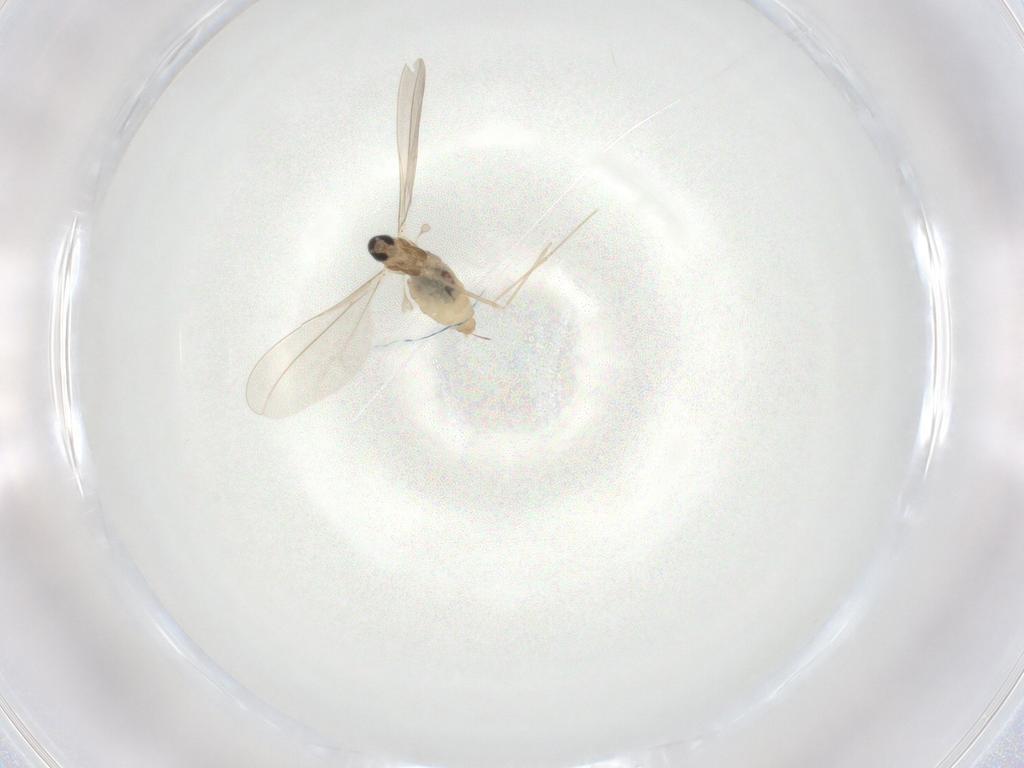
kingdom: Animalia
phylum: Arthropoda
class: Insecta
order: Diptera
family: Cecidomyiidae
